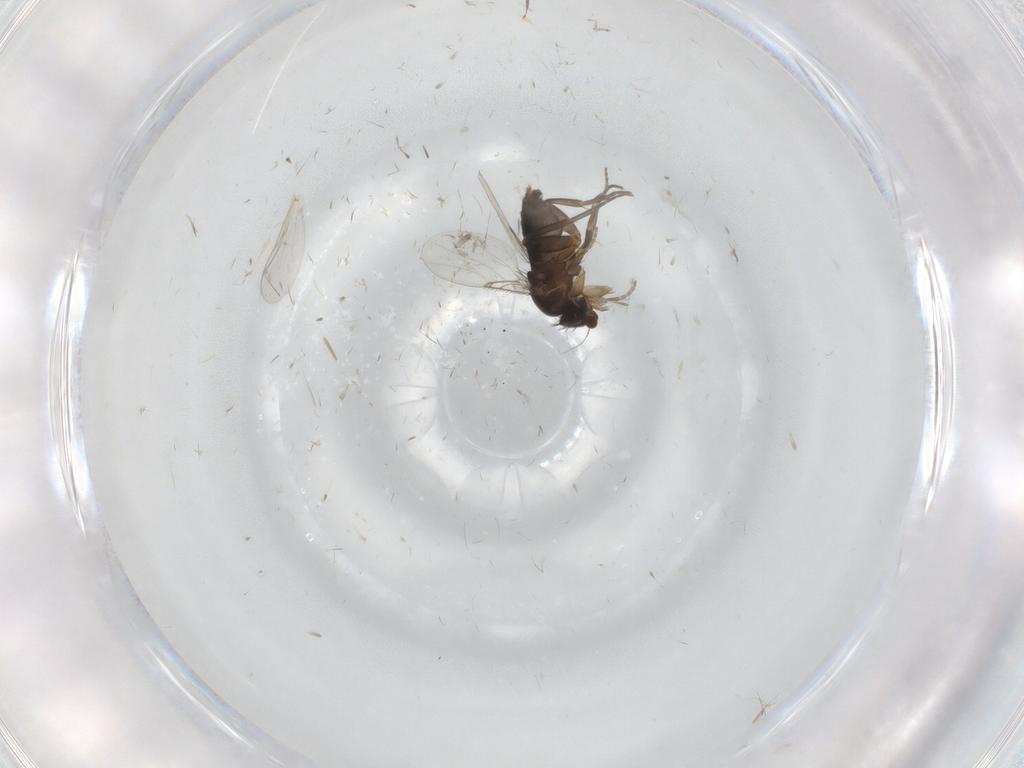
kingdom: Animalia
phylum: Arthropoda
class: Insecta
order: Diptera
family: Phoridae
